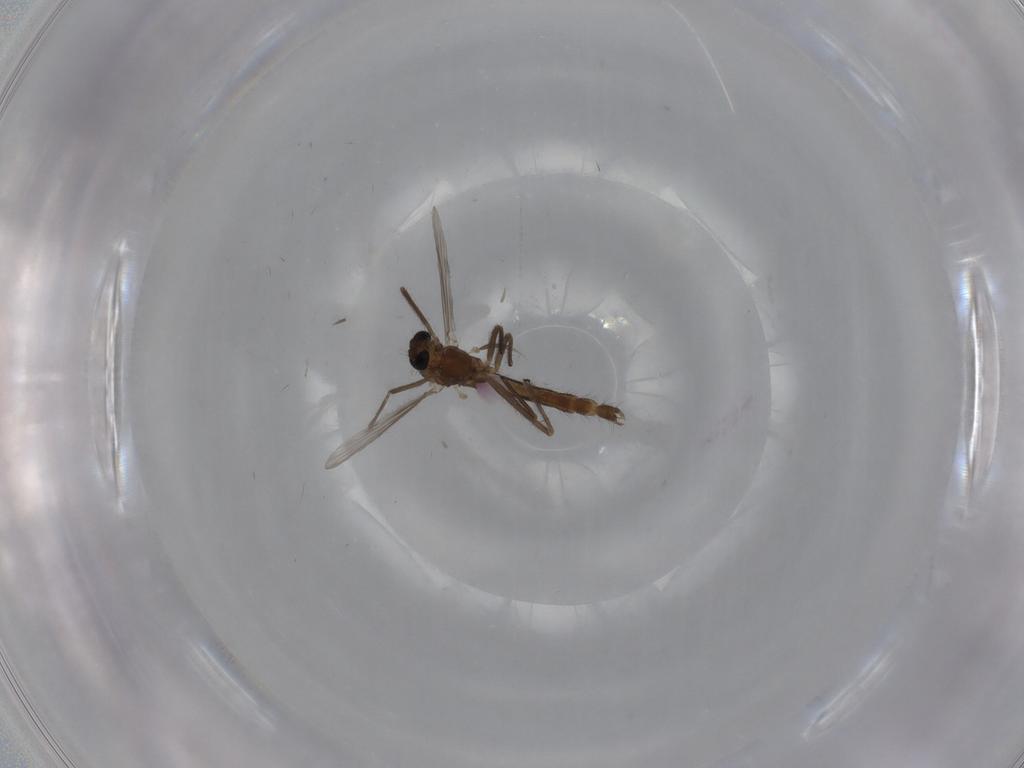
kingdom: Animalia
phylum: Arthropoda
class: Insecta
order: Diptera
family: Chironomidae
